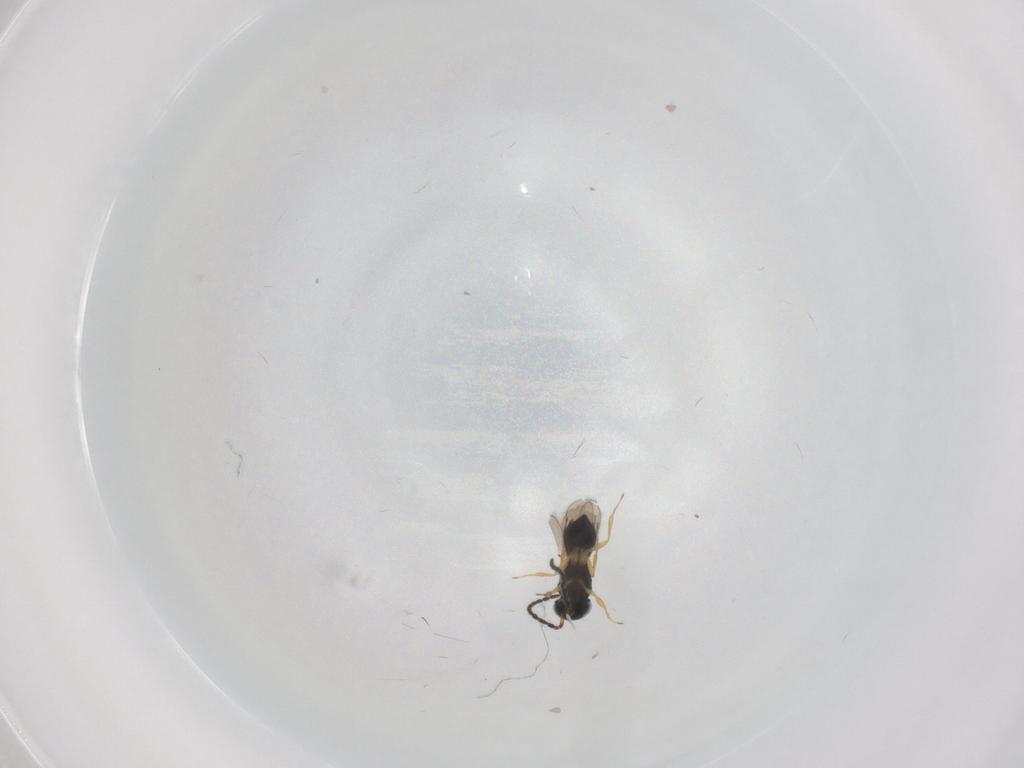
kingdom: Animalia
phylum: Arthropoda
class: Insecta
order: Hymenoptera
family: Scelionidae
